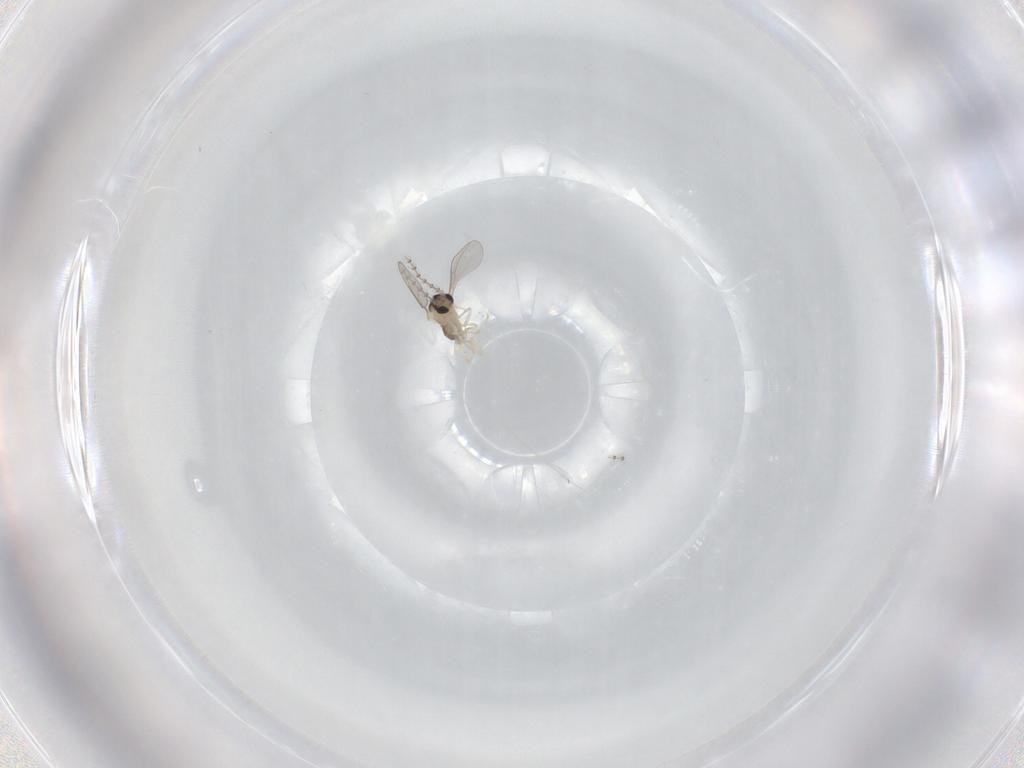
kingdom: Animalia
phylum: Arthropoda
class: Insecta
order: Diptera
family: Cecidomyiidae
